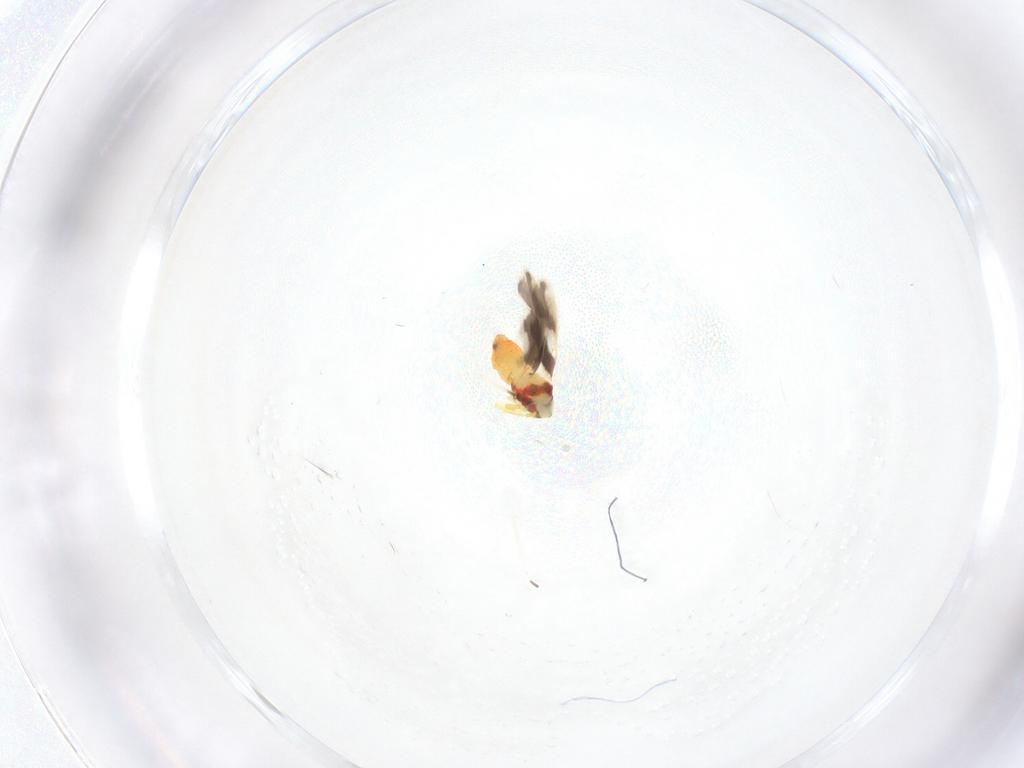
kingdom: Animalia
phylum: Arthropoda
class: Insecta
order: Hemiptera
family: Cixiidae
